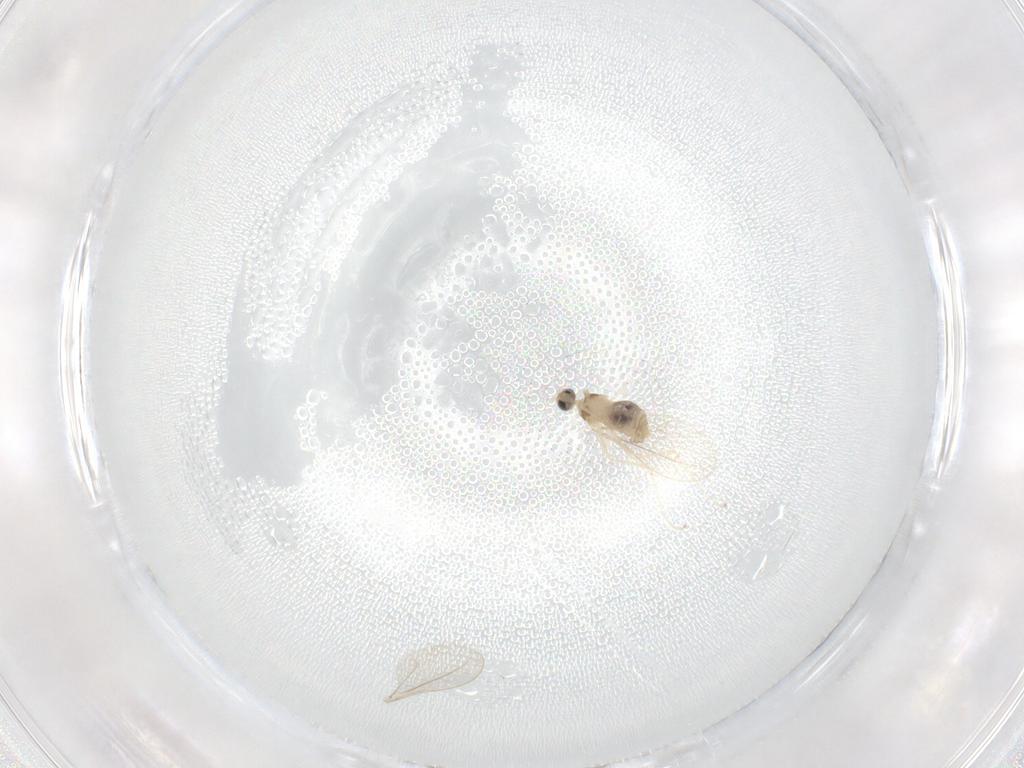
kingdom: Animalia
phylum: Arthropoda
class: Insecta
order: Diptera
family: Cecidomyiidae
